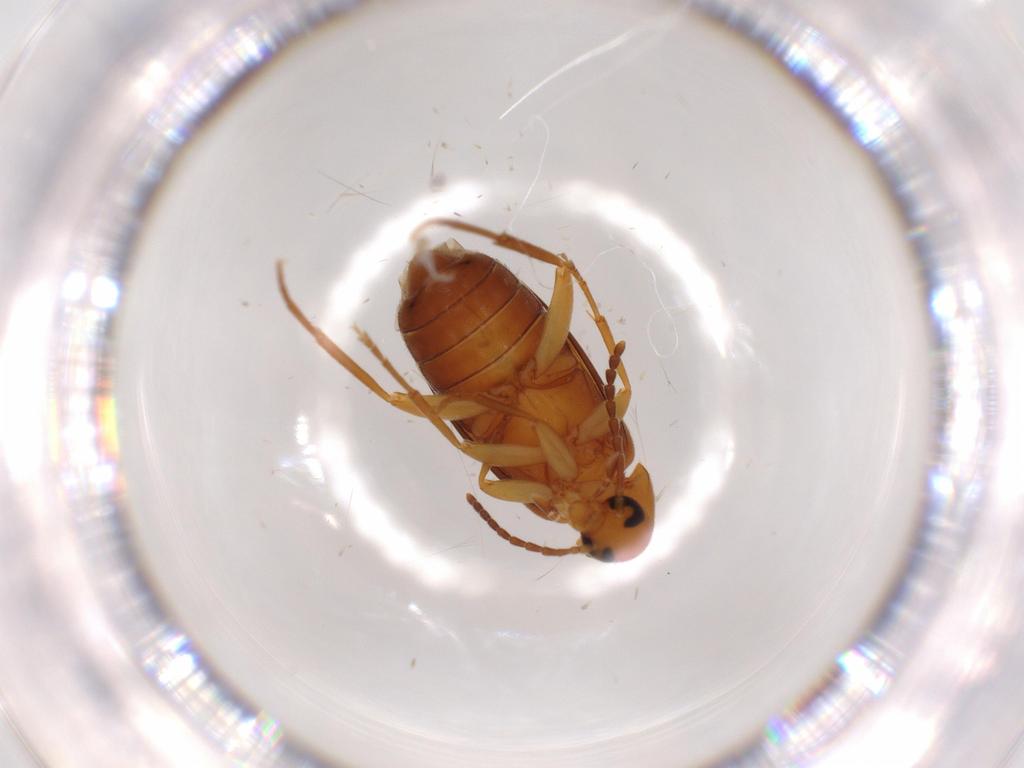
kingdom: Animalia
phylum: Arthropoda
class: Insecta
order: Coleoptera
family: Scraptiidae
